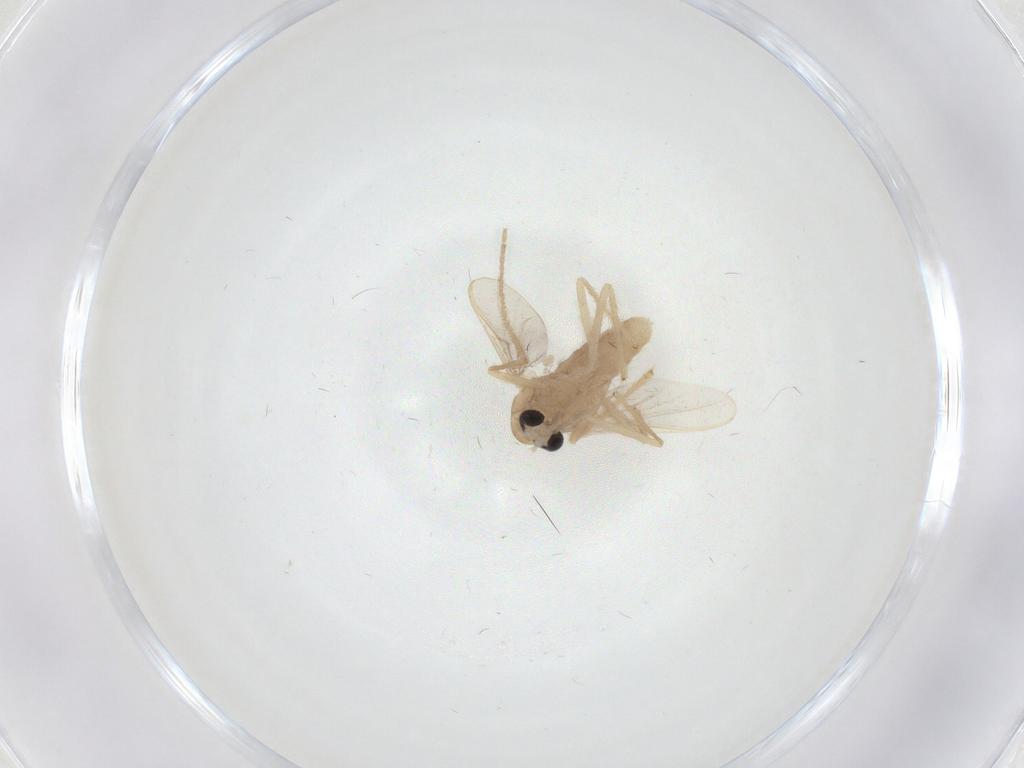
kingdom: Animalia
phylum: Arthropoda
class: Insecta
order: Diptera
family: Chironomidae
